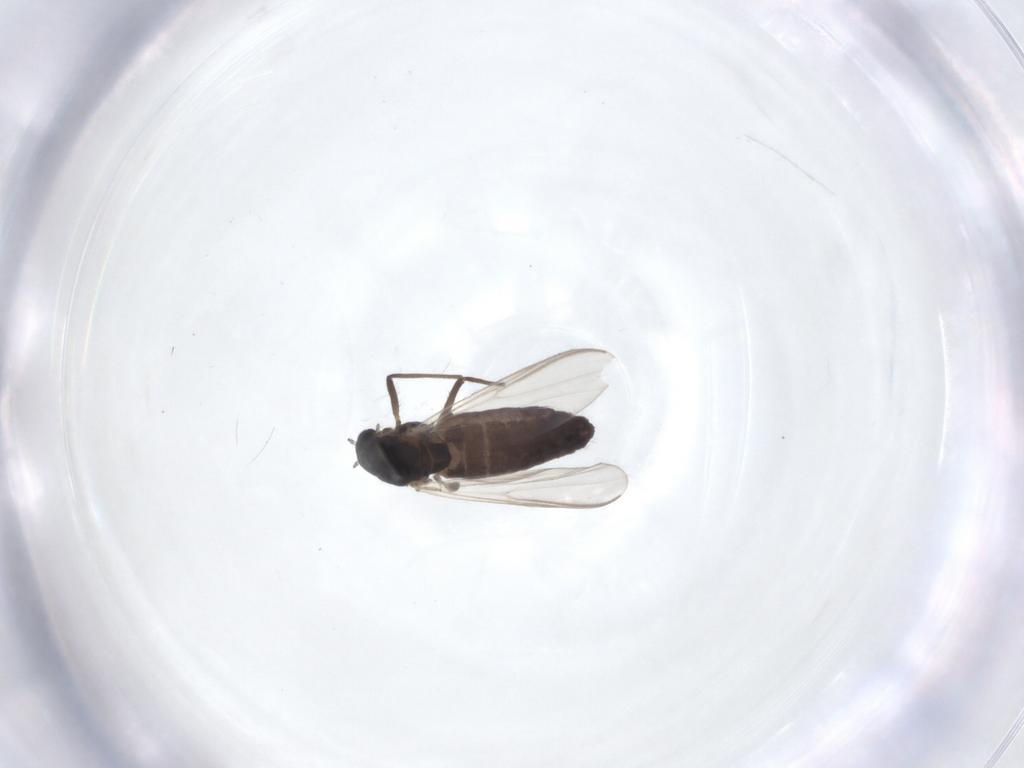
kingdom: Animalia
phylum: Arthropoda
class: Insecta
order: Diptera
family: Chironomidae
